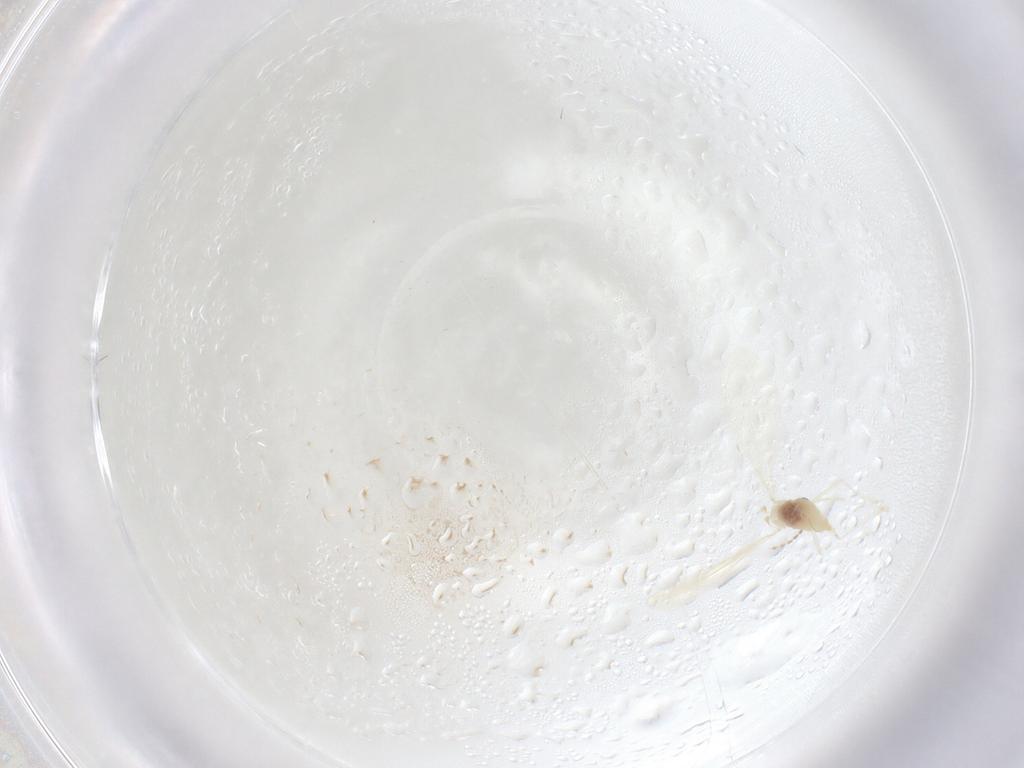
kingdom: Animalia
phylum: Arthropoda
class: Insecta
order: Diptera
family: Cecidomyiidae
